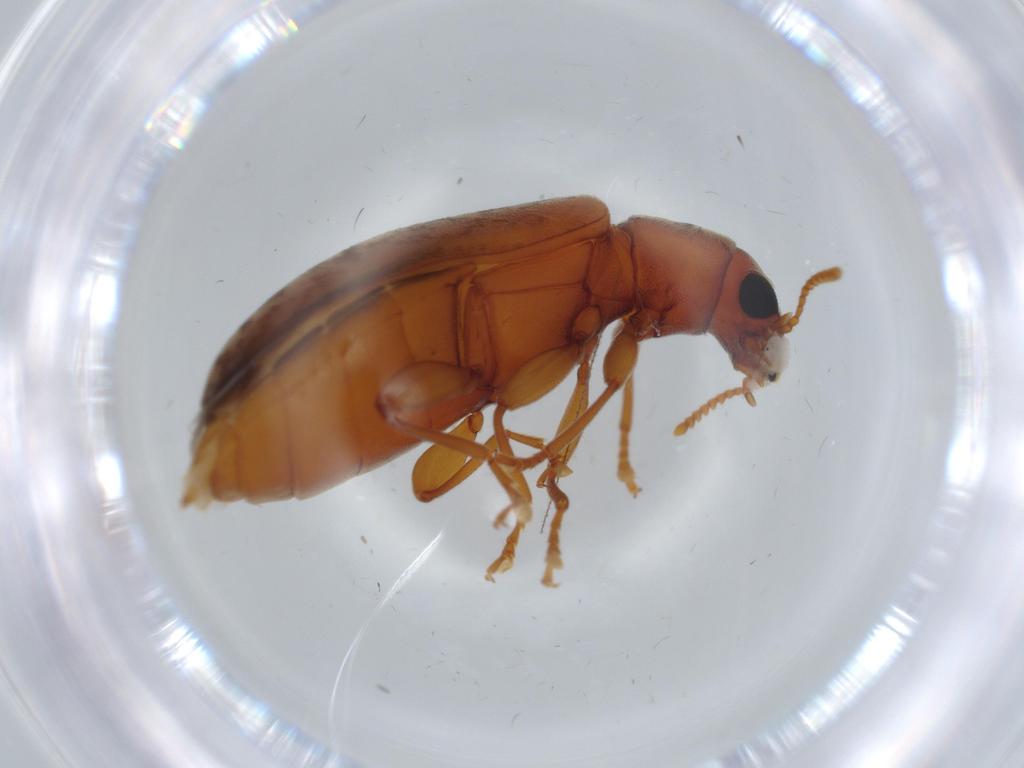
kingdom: Animalia
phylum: Arthropoda
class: Insecta
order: Coleoptera
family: Mycteridae
